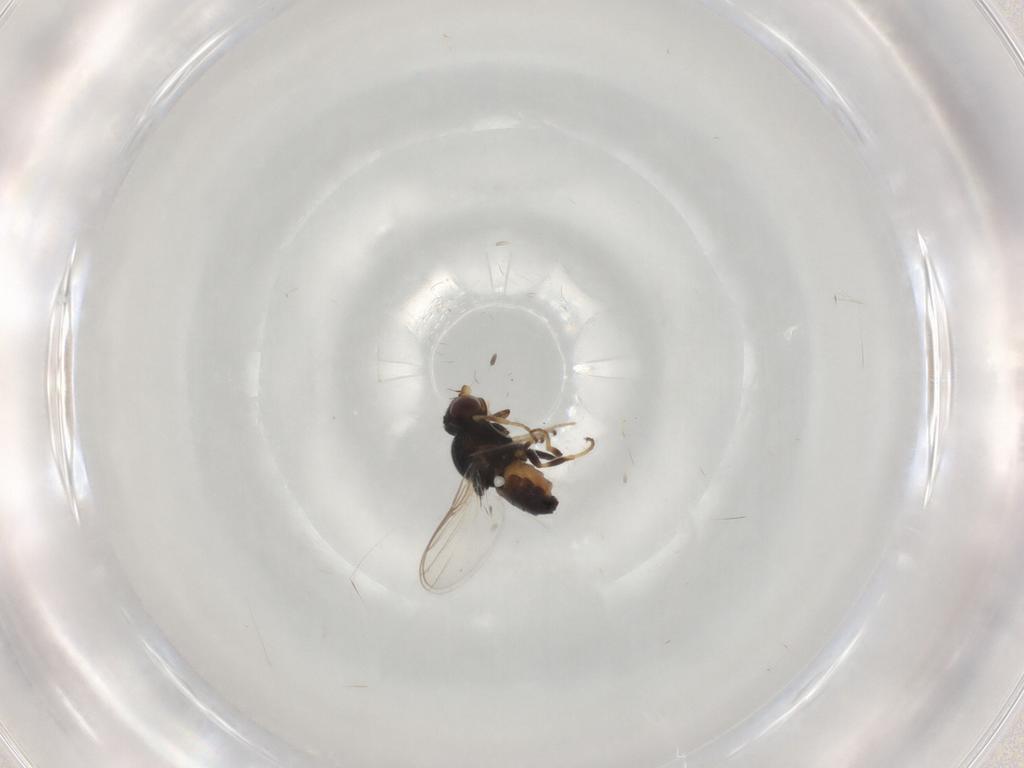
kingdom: Animalia
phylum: Arthropoda
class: Insecta
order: Diptera
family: Chloropidae
